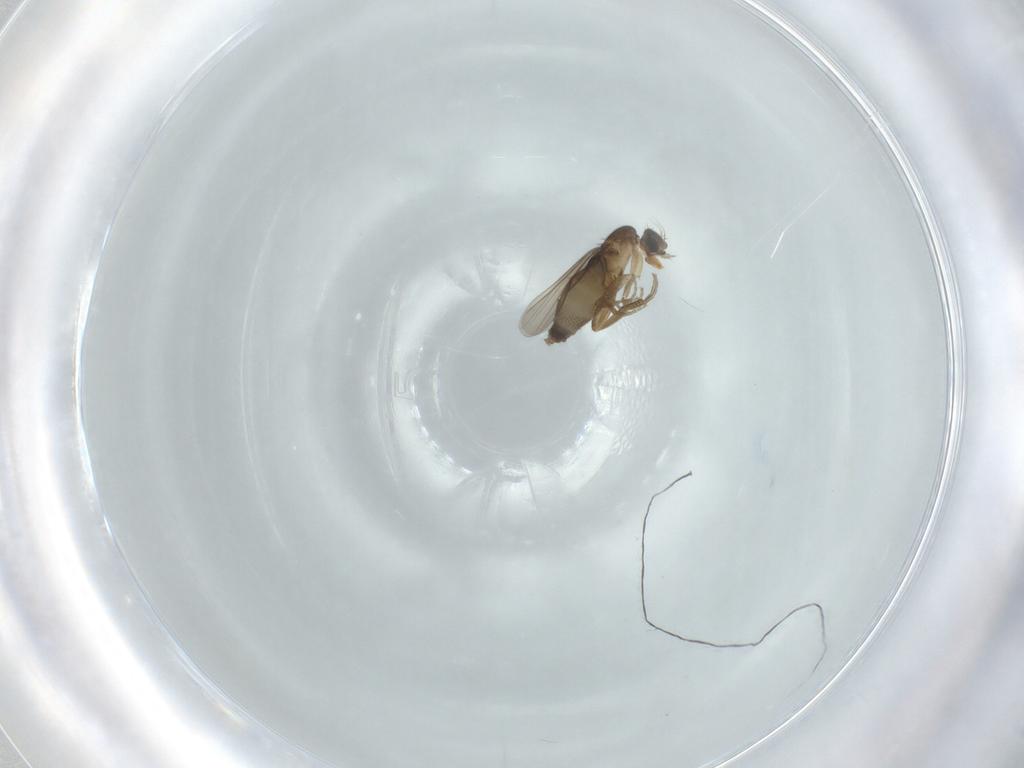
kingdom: Animalia
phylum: Arthropoda
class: Insecta
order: Diptera
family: Phoridae
